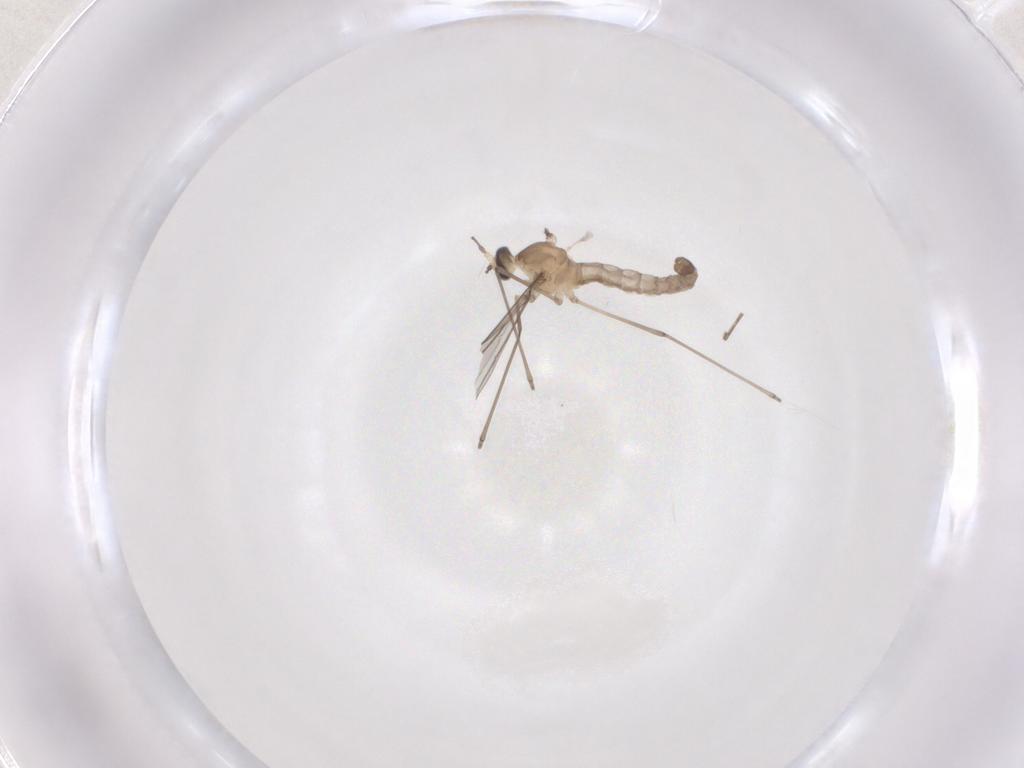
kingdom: Animalia
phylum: Arthropoda
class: Insecta
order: Diptera
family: Cecidomyiidae
